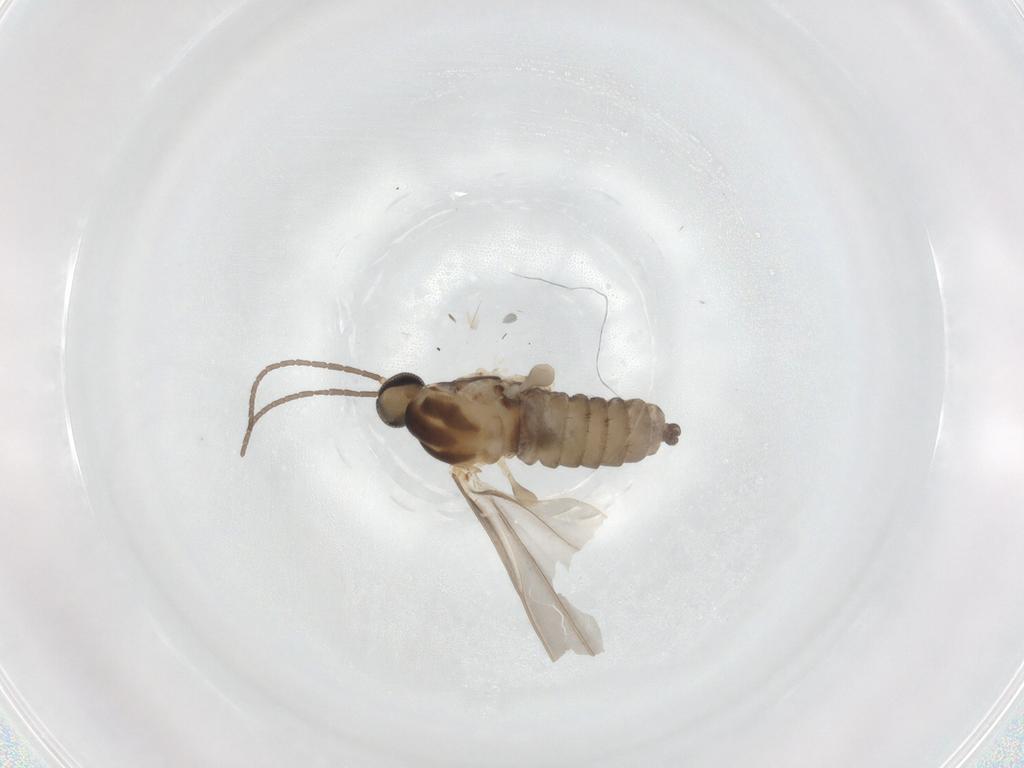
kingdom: Animalia
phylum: Arthropoda
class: Insecta
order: Diptera
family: Cecidomyiidae
